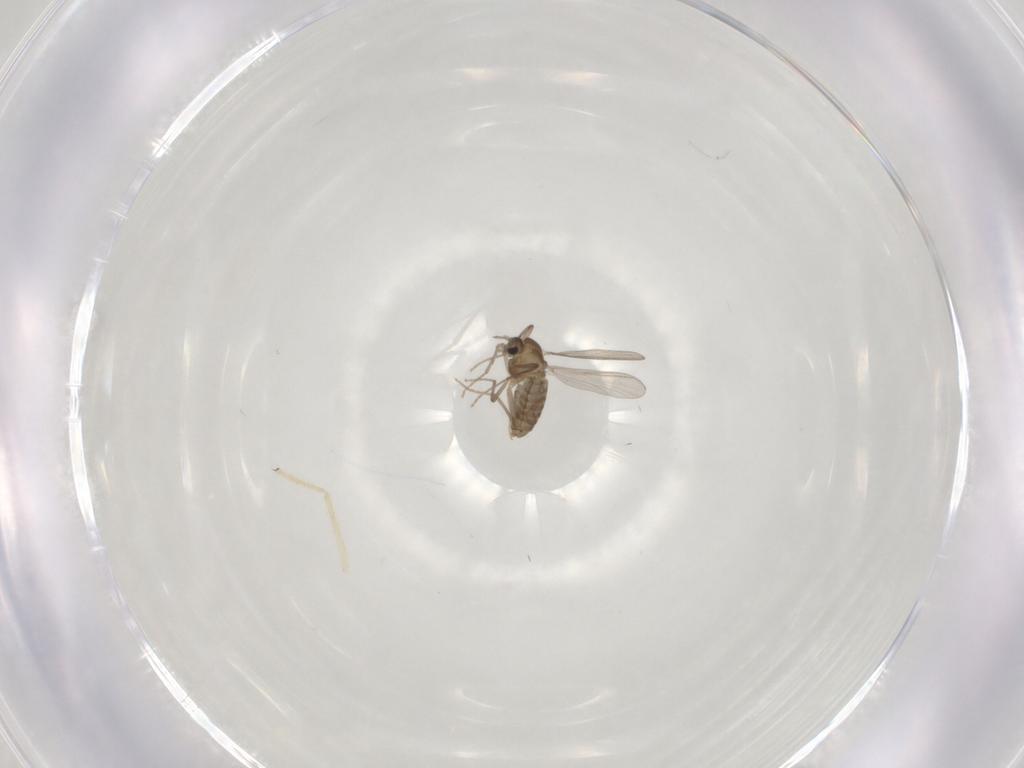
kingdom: Animalia
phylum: Arthropoda
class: Insecta
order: Diptera
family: Chironomidae
